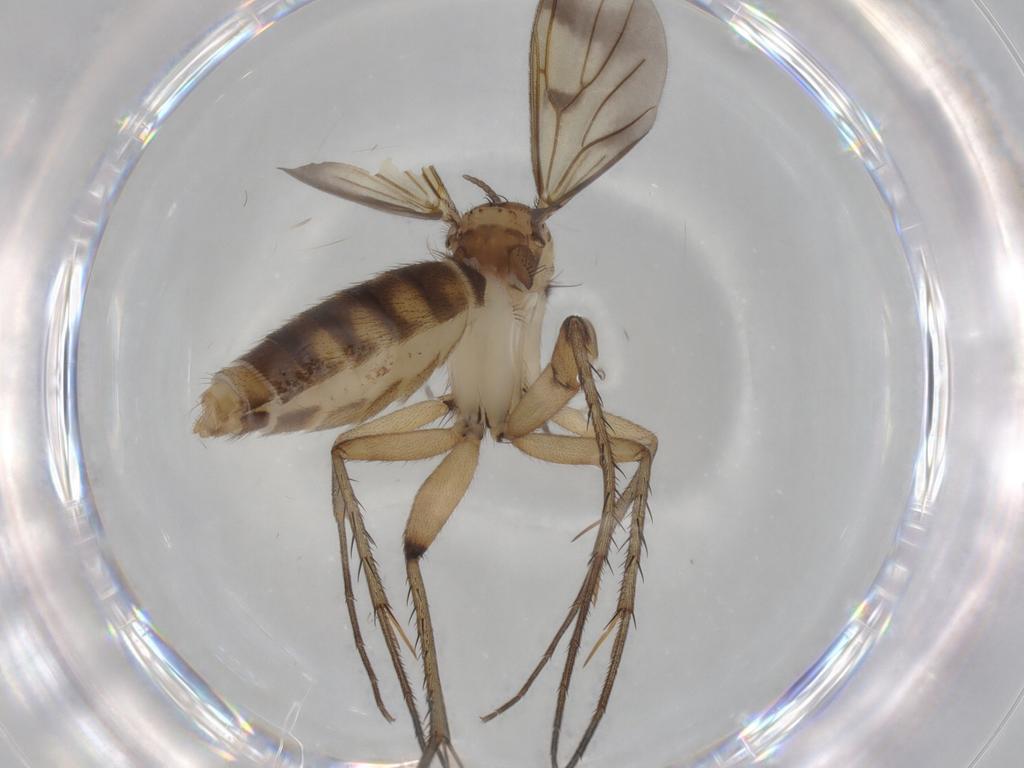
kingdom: Animalia
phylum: Arthropoda
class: Insecta
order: Diptera
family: Mycetophilidae
